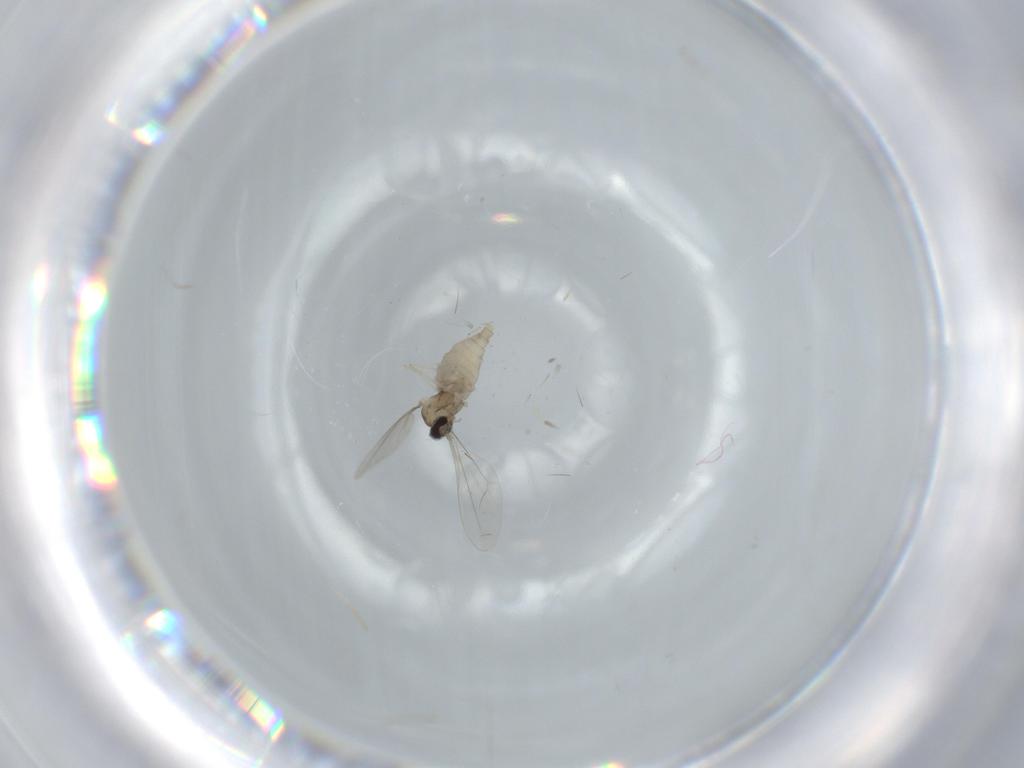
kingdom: Animalia
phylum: Arthropoda
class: Insecta
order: Diptera
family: Cecidomyiidae
